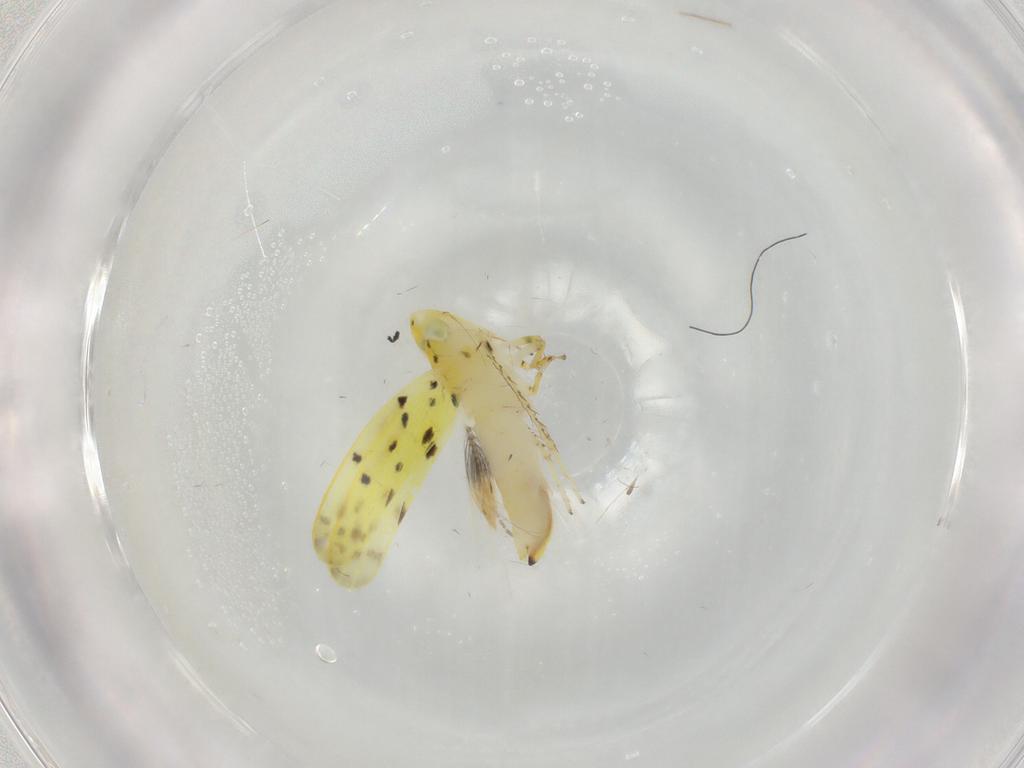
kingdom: Animalia
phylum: Arthropoda
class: Insecta
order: Hemiptera
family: Cicadellidae
